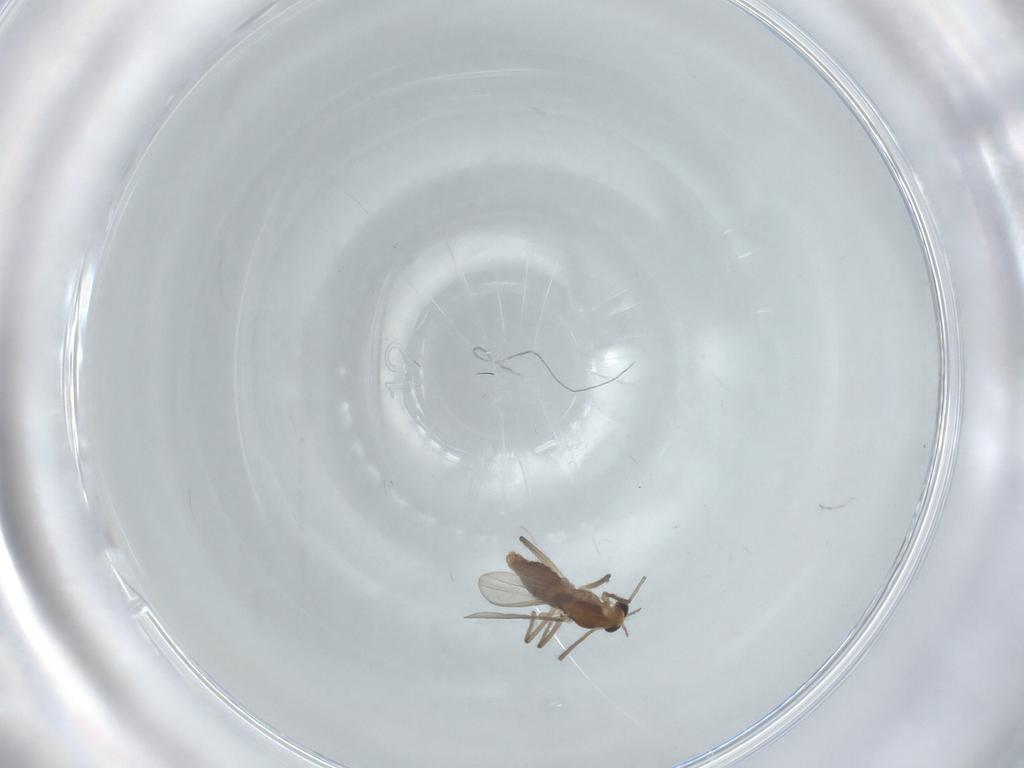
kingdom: Animalia
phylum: Arthropoda
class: Insecta
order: Diptera
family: Chironomidae
